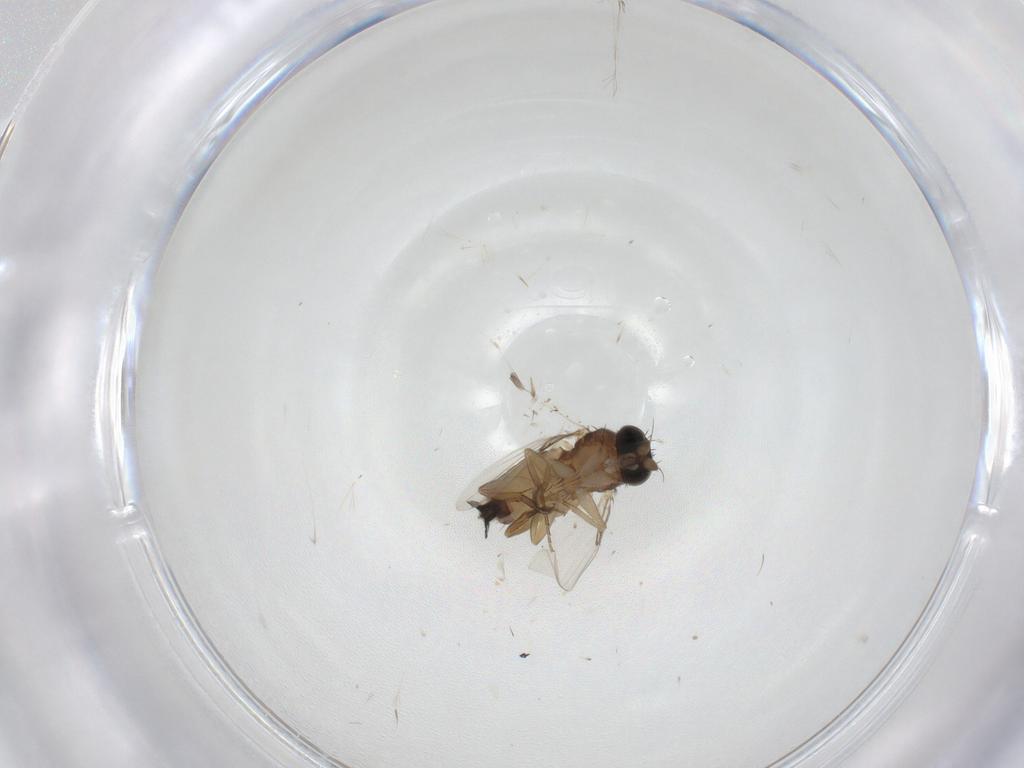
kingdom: Animalia
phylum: Arthropoda
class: Insecta
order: Diptera
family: Phoridae
